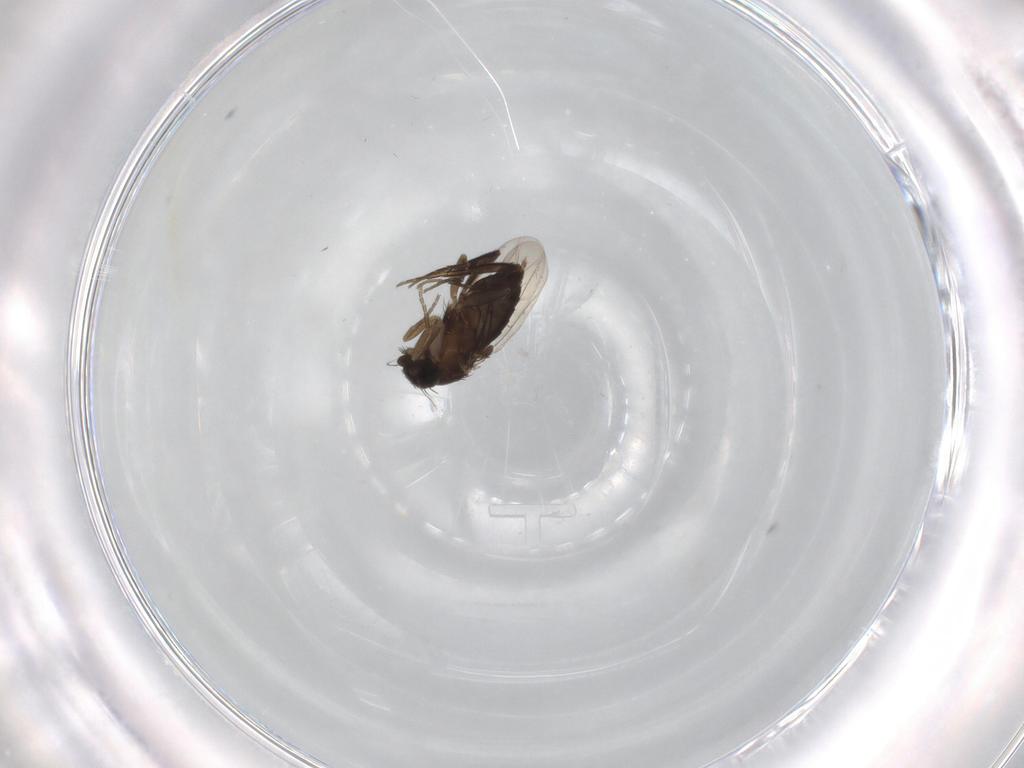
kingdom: Animalia
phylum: Arthropoda
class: Insecta
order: Diptera
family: Phoridae
